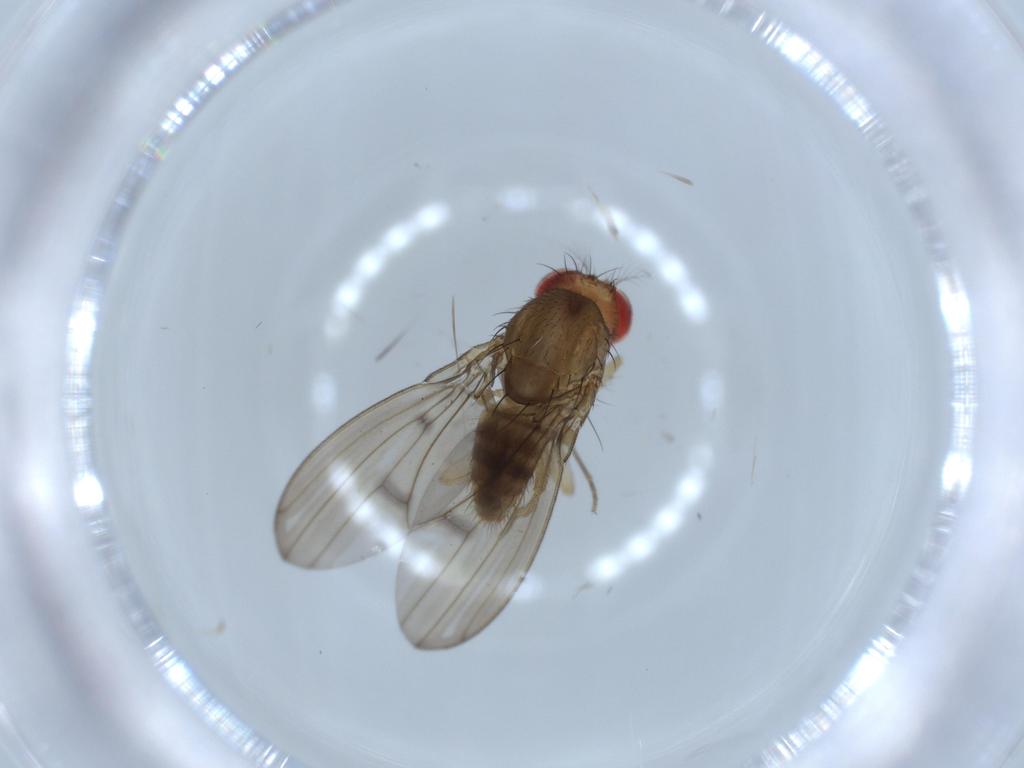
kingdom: Animalia
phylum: Arthropoda
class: Insecta
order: Diptera
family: Drosophilidae
